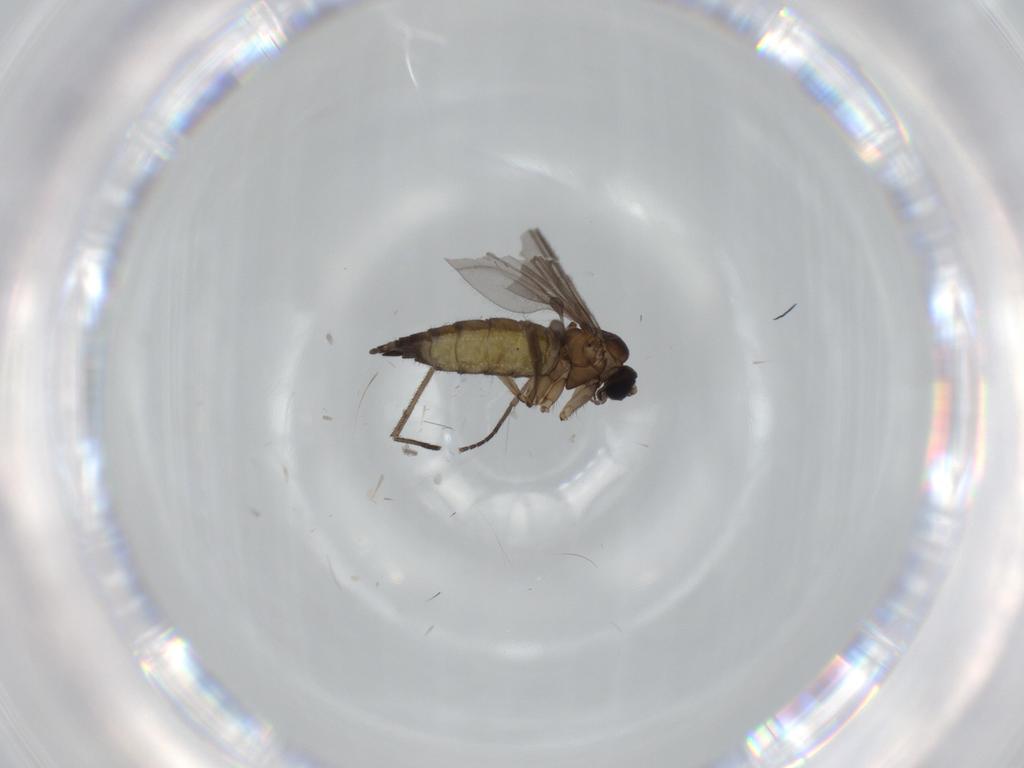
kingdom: Animalia
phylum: Arthropoda
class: Insecta
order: Diptera
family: Sciaridae
